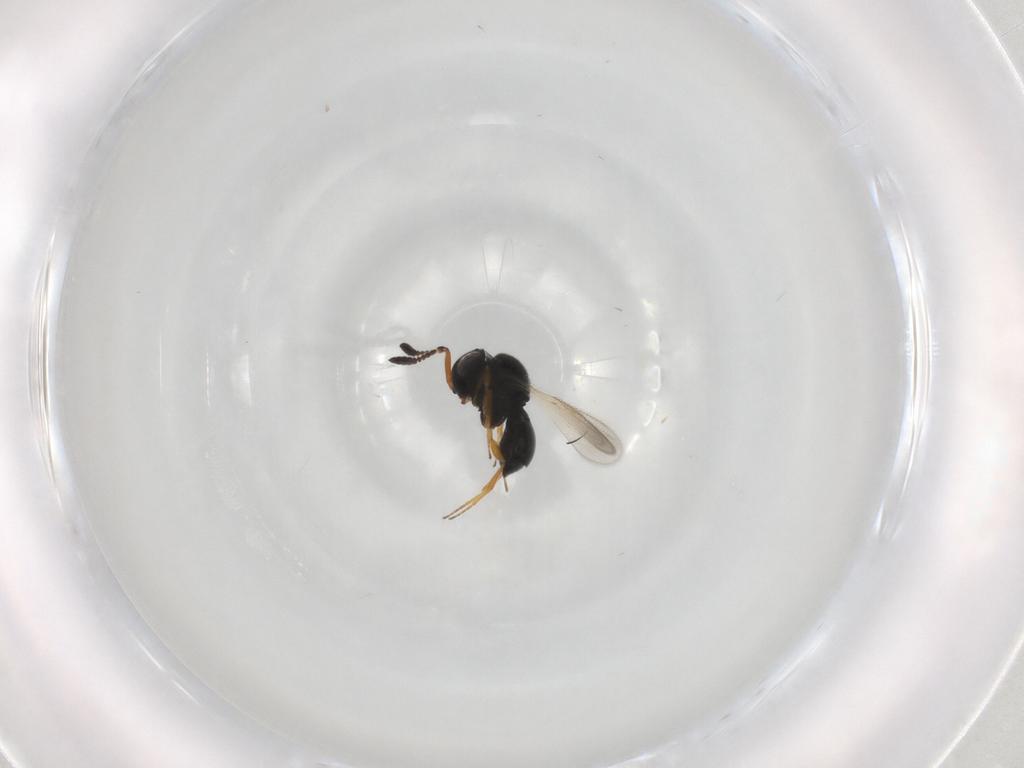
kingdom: Animalia
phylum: Arthropoda
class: Insecta
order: Hymenoptera
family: Scelionidae
